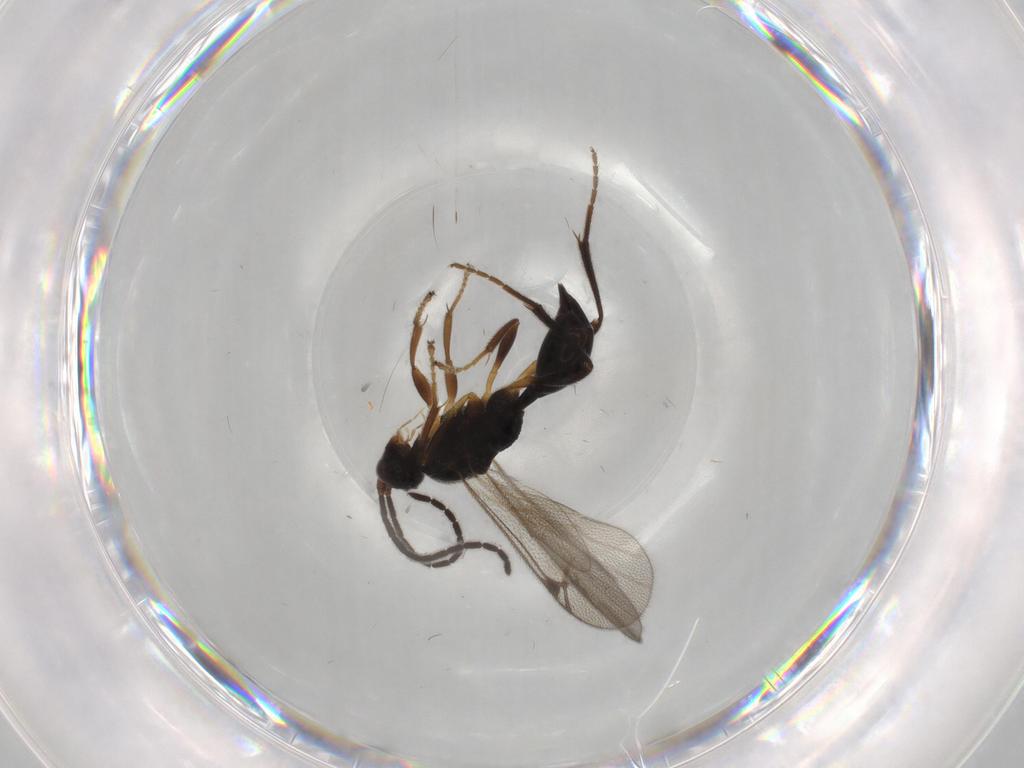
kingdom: Animalia
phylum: Arthropoda
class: Insecta
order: Hymenoptera
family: Proctotrupidae
